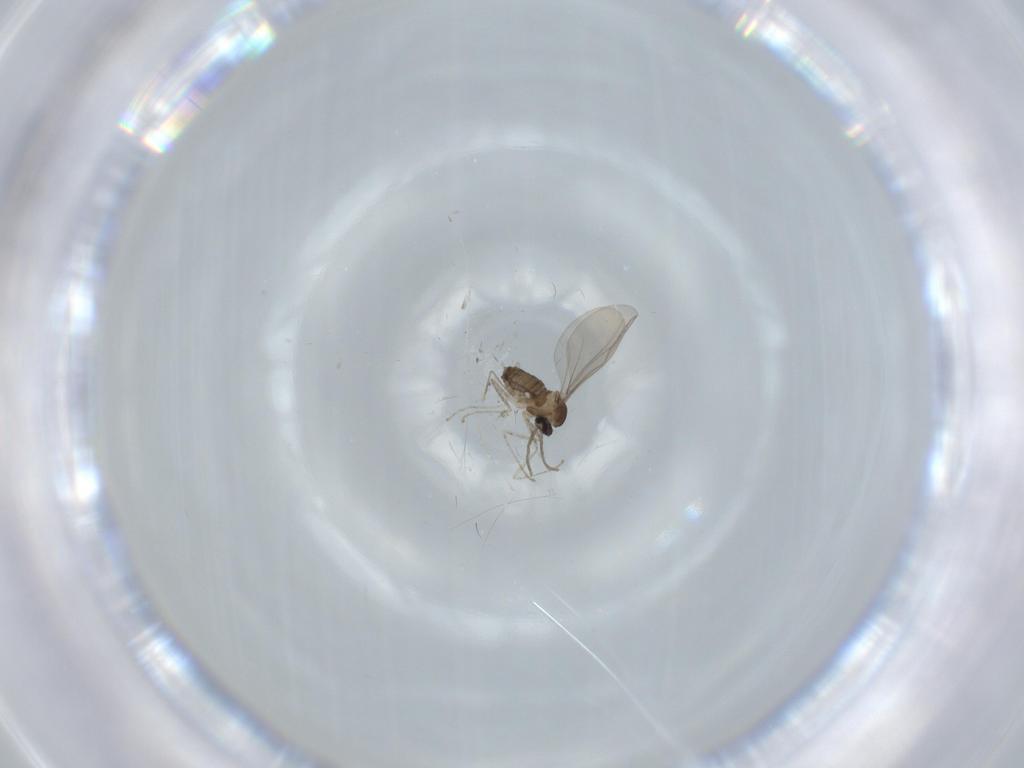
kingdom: Animalia
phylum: Arthropoda
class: Insecta
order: Diptera
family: Cecidomyiidae
